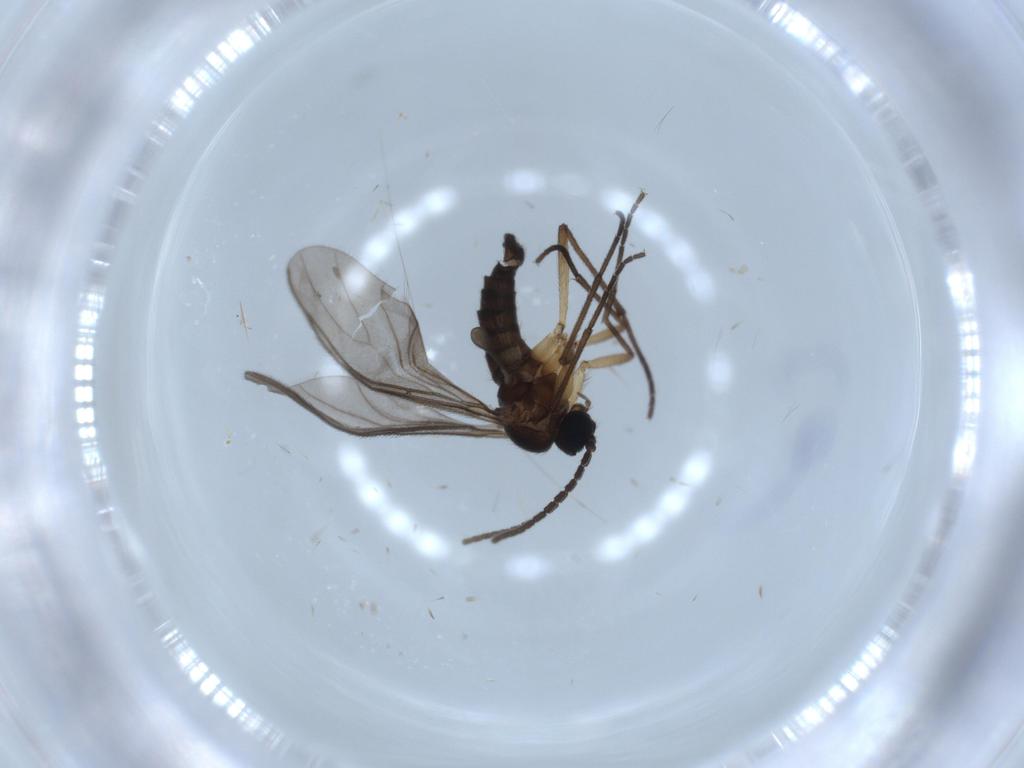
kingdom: Animalia
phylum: Arthropoda
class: Insecta
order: Diptera
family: Sciaridae
